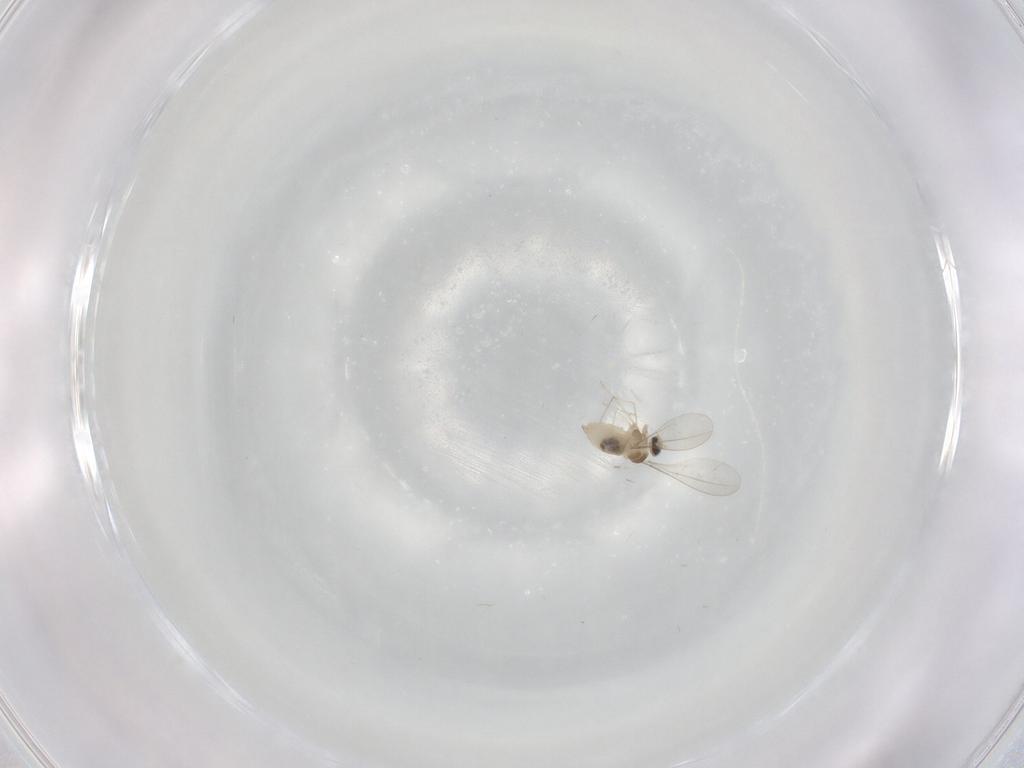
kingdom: Animalia
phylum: Arthropoda
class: Insecta
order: Diptera
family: Cecidomyiidae
